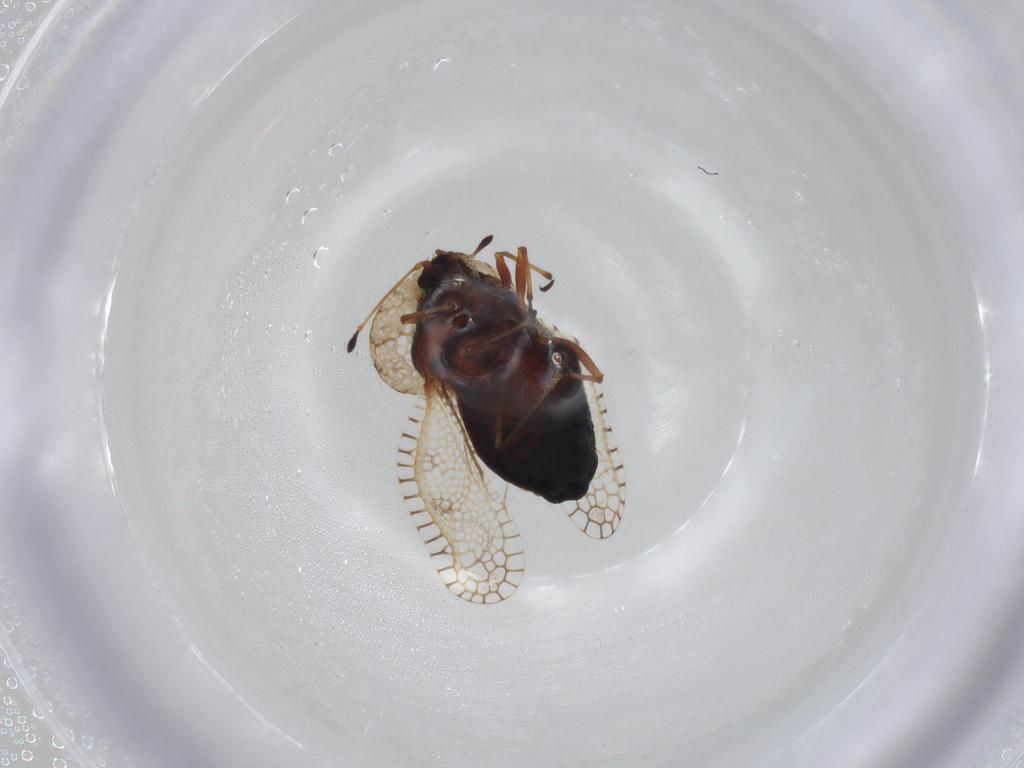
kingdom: Animalia
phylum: Arthropoda
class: Insecta
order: Hemiptera
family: Tingidae
